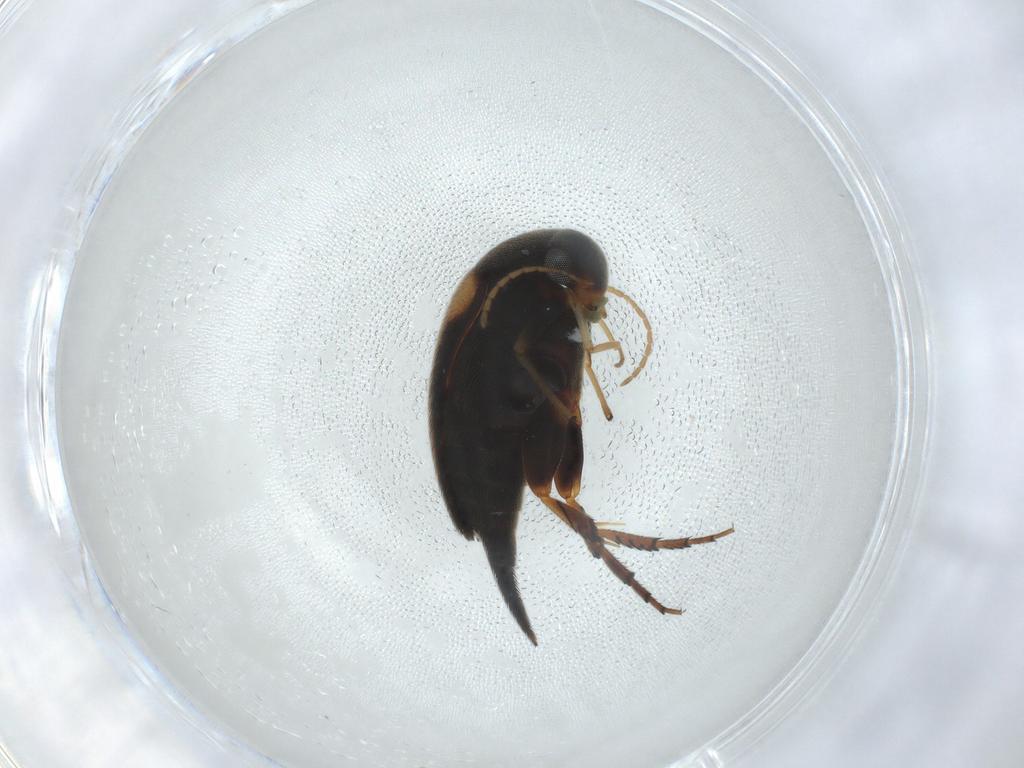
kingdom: Animalia
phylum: Arthropoda
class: Insecta
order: Coleoptera
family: Mordellidae
